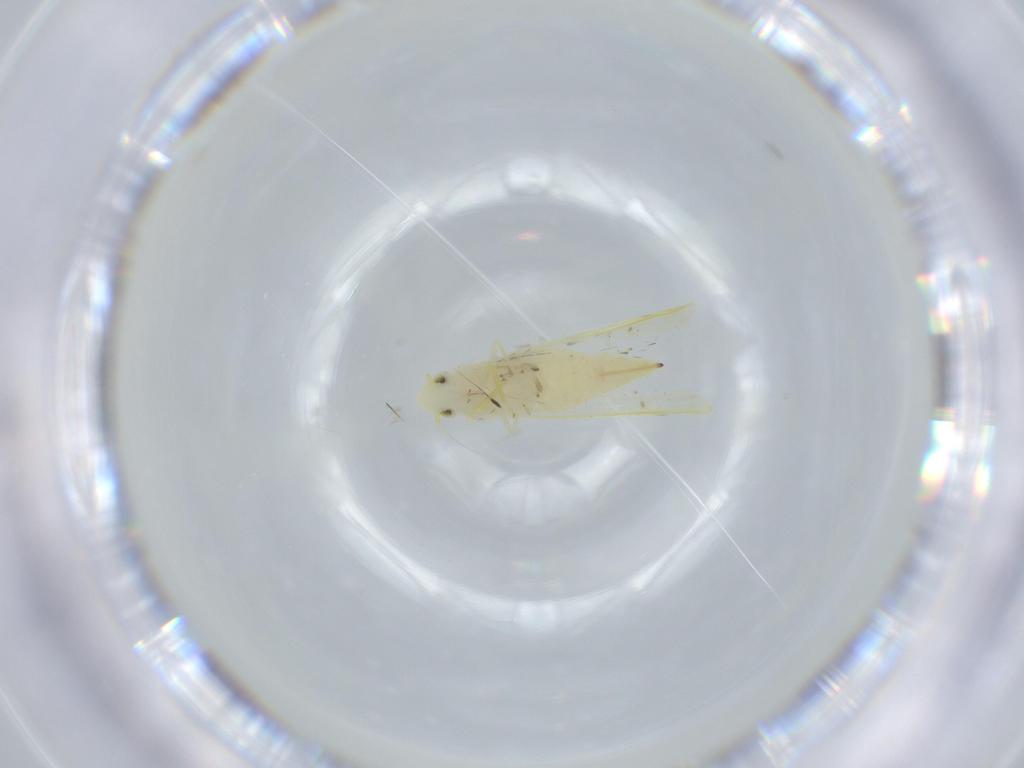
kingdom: Animalia
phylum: Arthropoda
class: Insecta
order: Hemiptera
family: Cicadellidae
